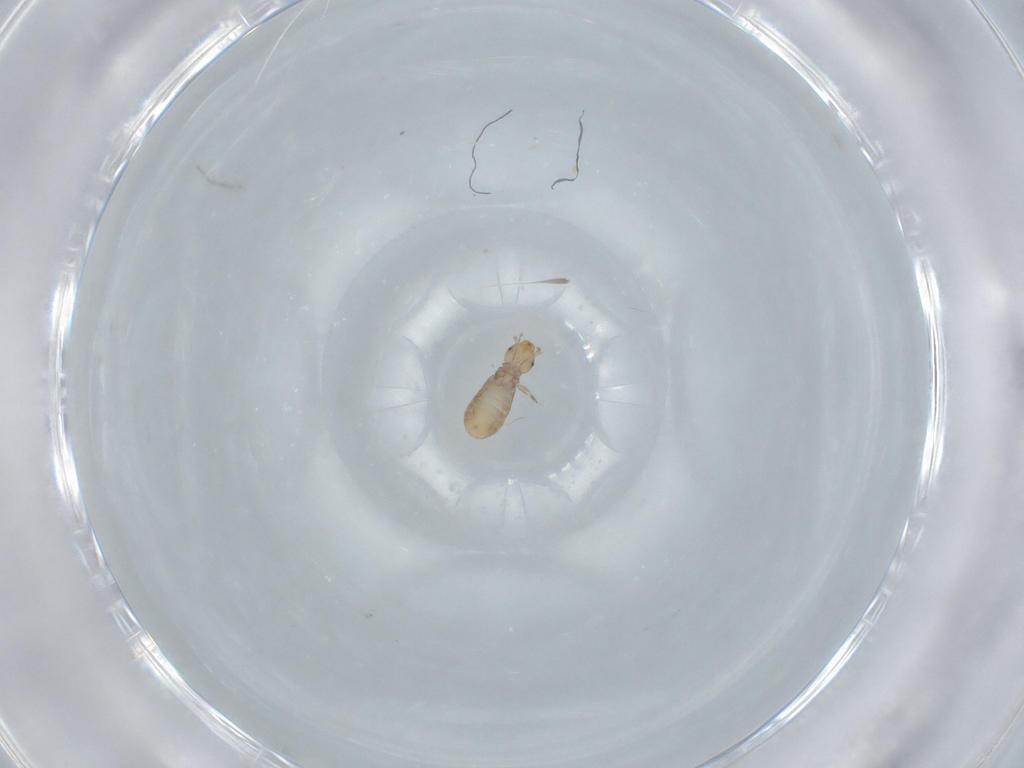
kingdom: Animalia
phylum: Arthropoda
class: Insecta
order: Psocodea
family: Liposcelididae
